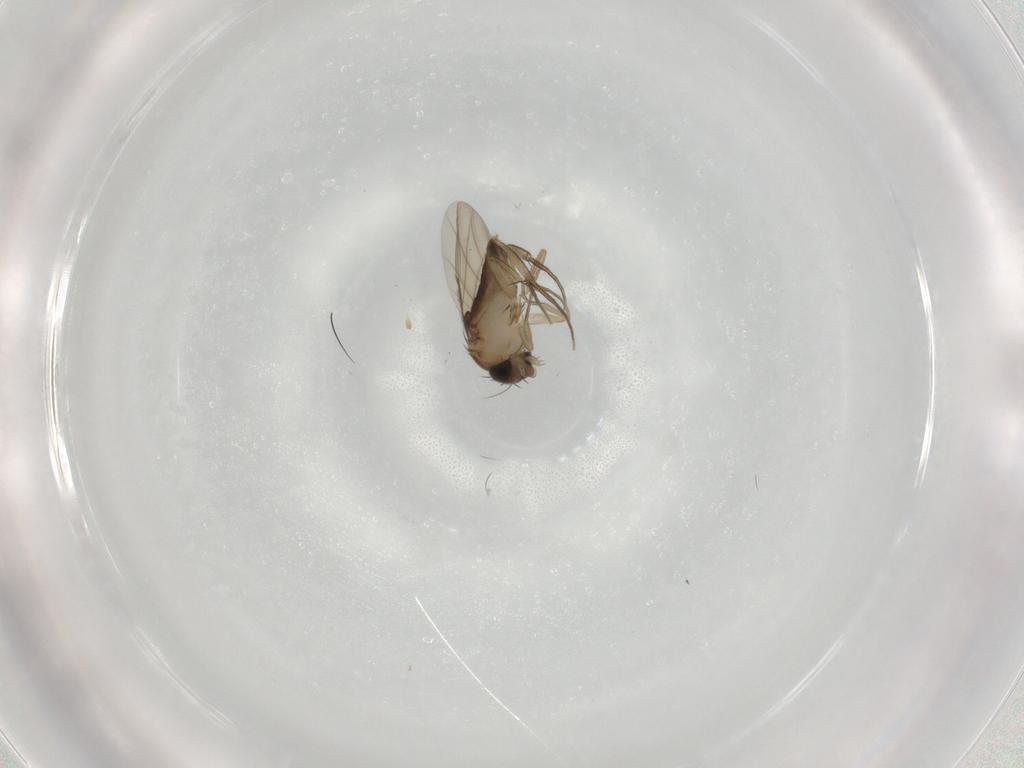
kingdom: Animalia
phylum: Arthropoda
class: Insecta
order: Diptera
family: Phoridae
